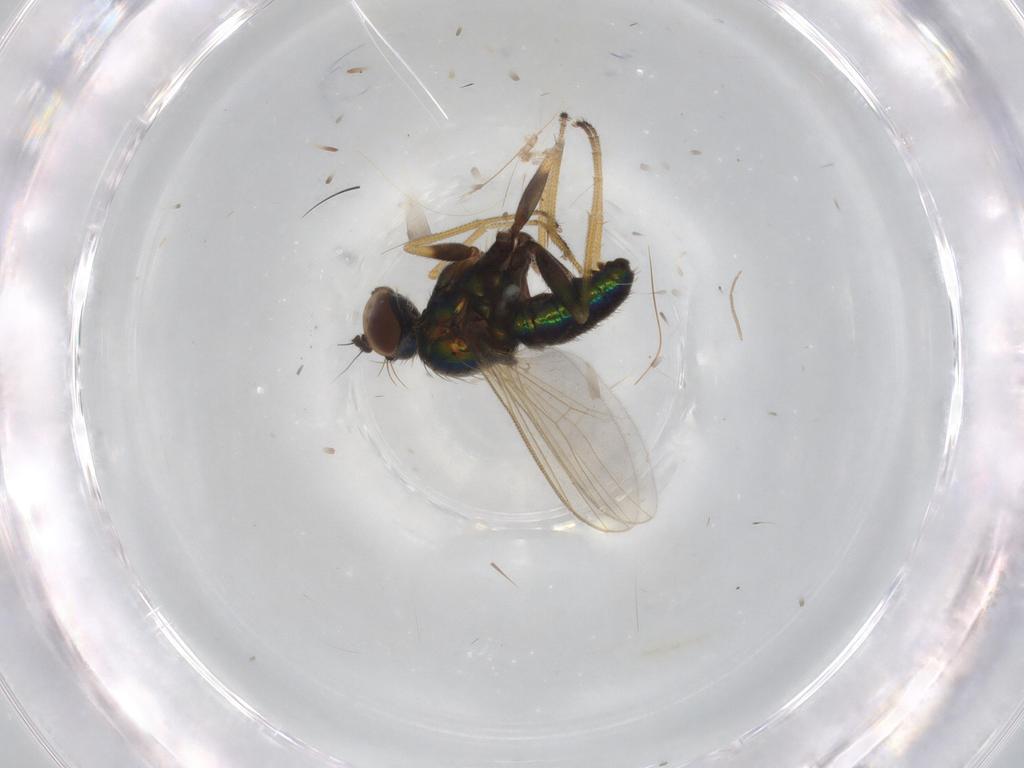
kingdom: Animalia
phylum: Arthropoda
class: Insecta
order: Diptera
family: Dolichopodidae
